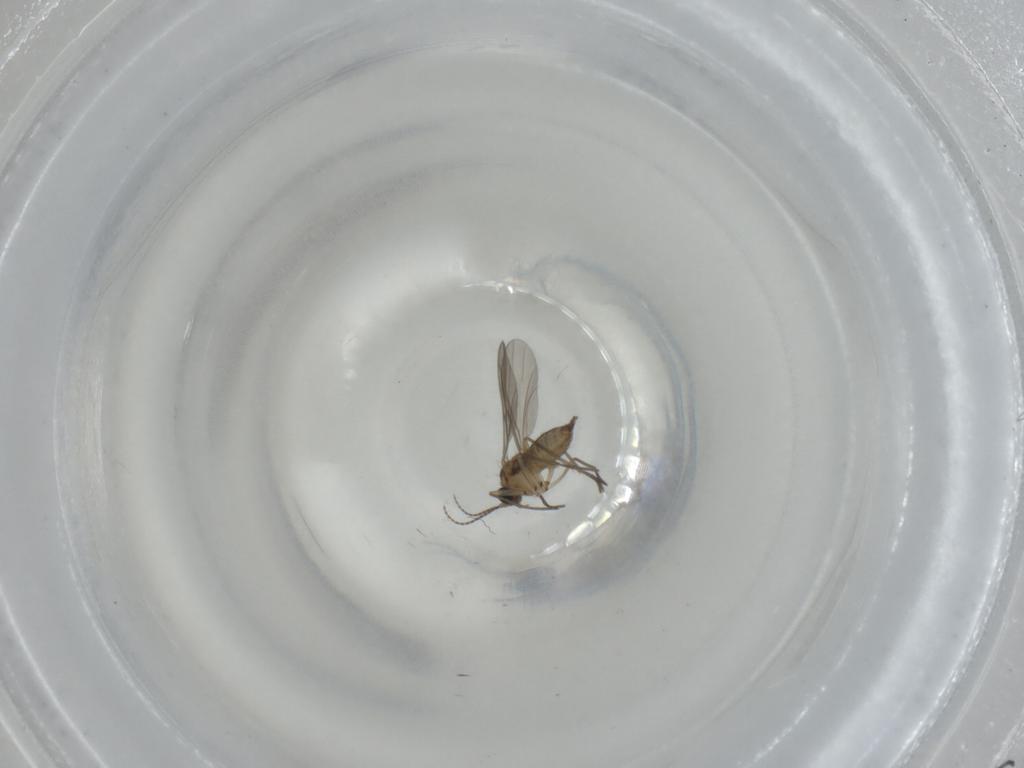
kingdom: Animalia
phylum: Arthropoda
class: Insecta
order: Diptera
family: Sciaridae
